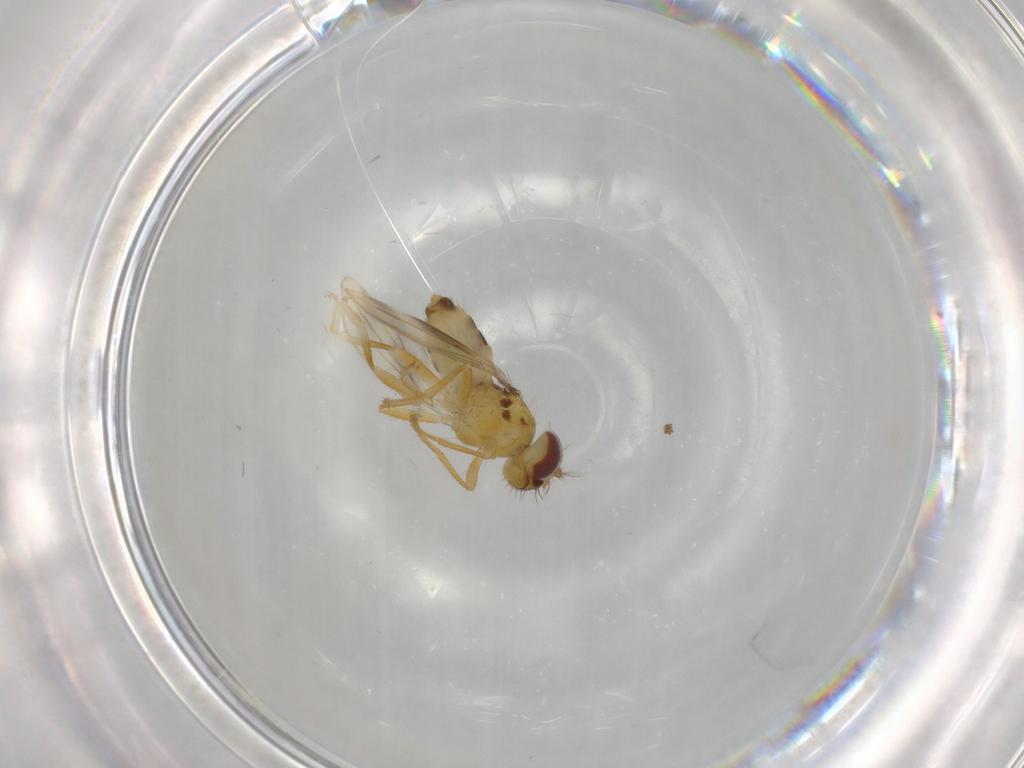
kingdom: Animalia
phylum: Arthropoda
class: Insecta
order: Diptera
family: Periscelididae
